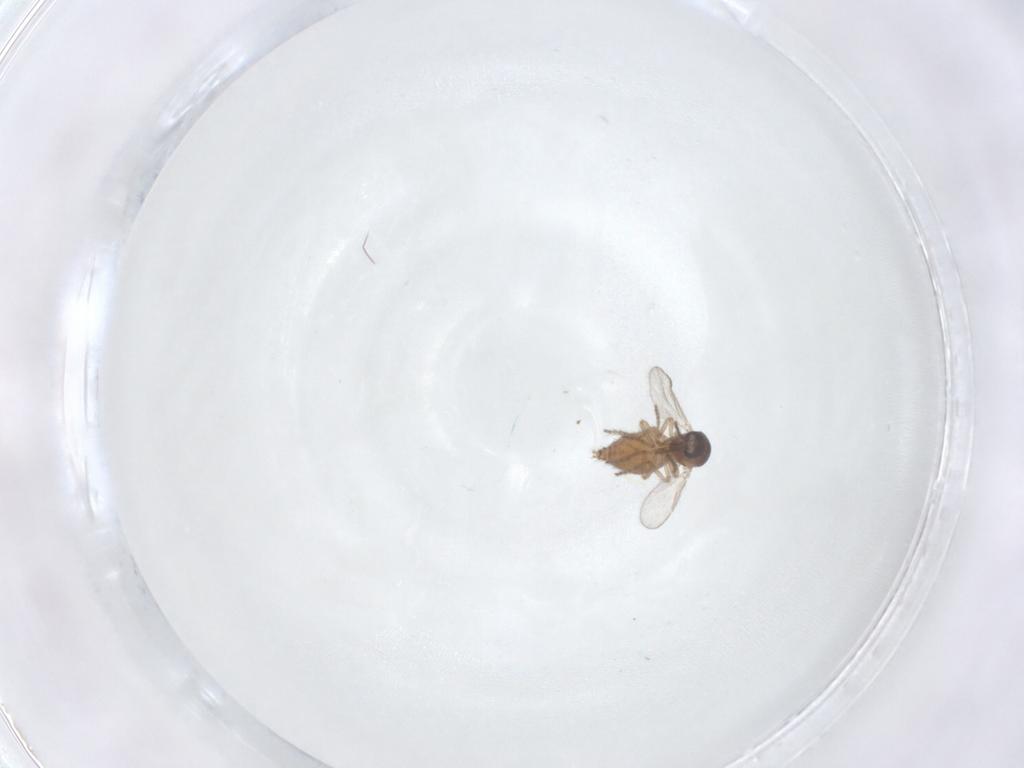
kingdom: Animalia
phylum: Arthropoda
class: Insecta
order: Diptera
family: Ceratopogonidae
